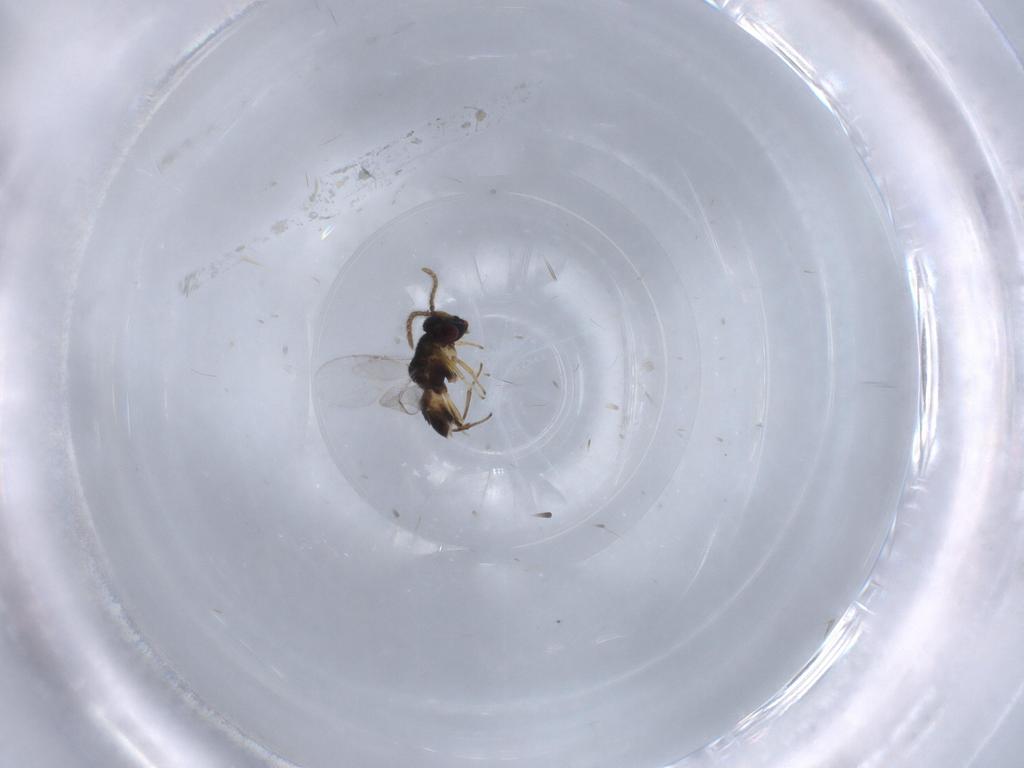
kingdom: Animalia
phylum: Arthropoda
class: Insecta
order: Hymenoptera
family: Encyrtidae
